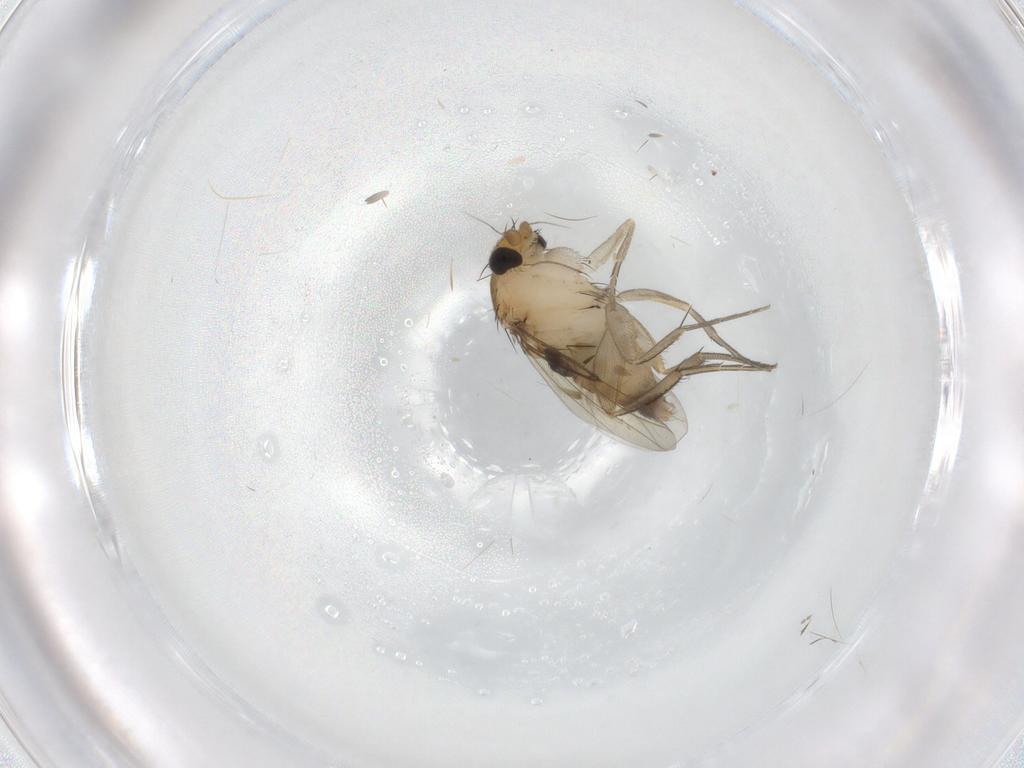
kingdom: Animalia
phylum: Arthropoda
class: Insecta
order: Diptera
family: Phoridae
